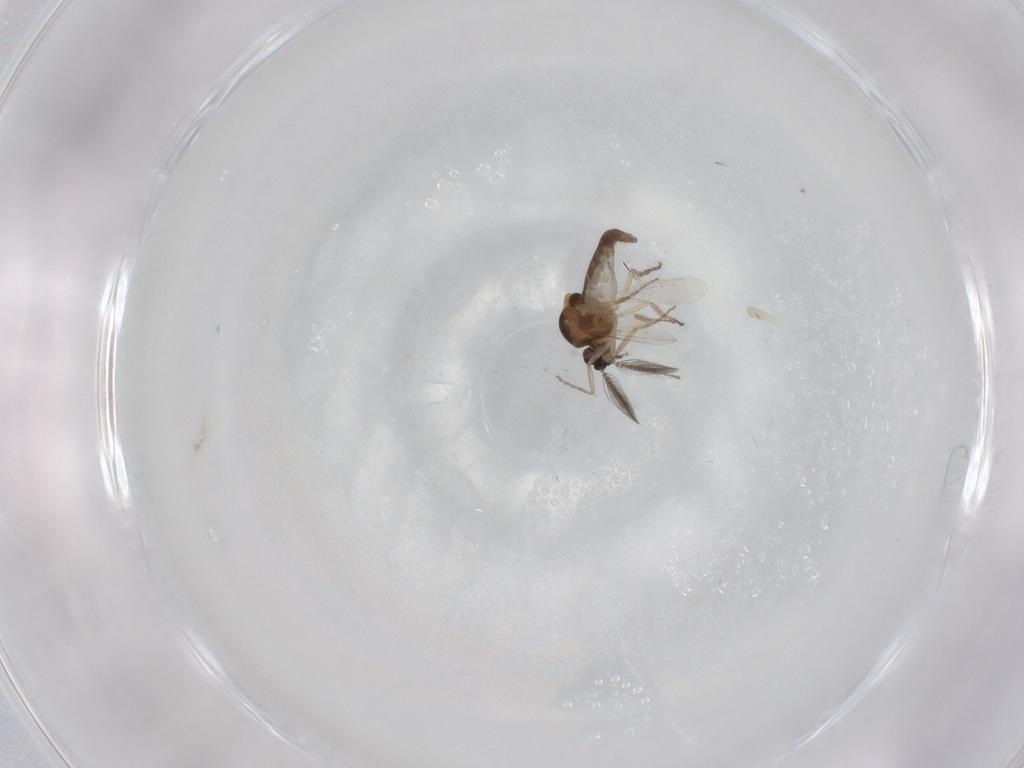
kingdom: Animalia
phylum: Arthropoda
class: Insecta
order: Diptera
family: Ceratopogonidae
